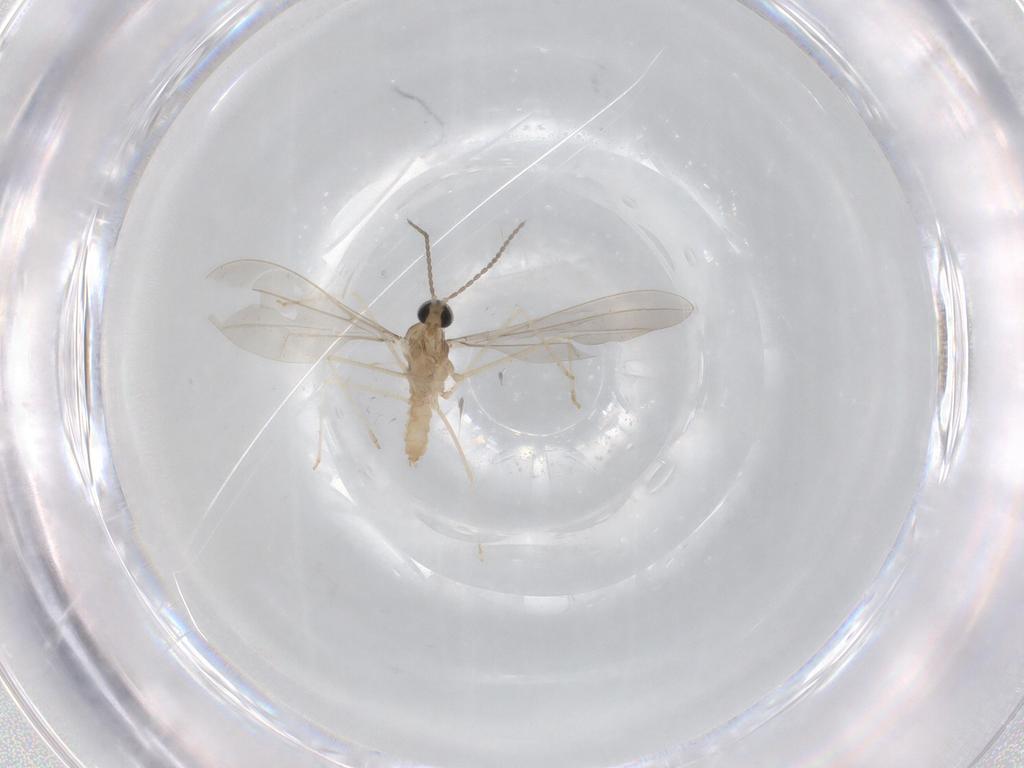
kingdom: Animalia
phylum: Arthropoda
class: Insecta
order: Diptera
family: Cecidomyiidae
